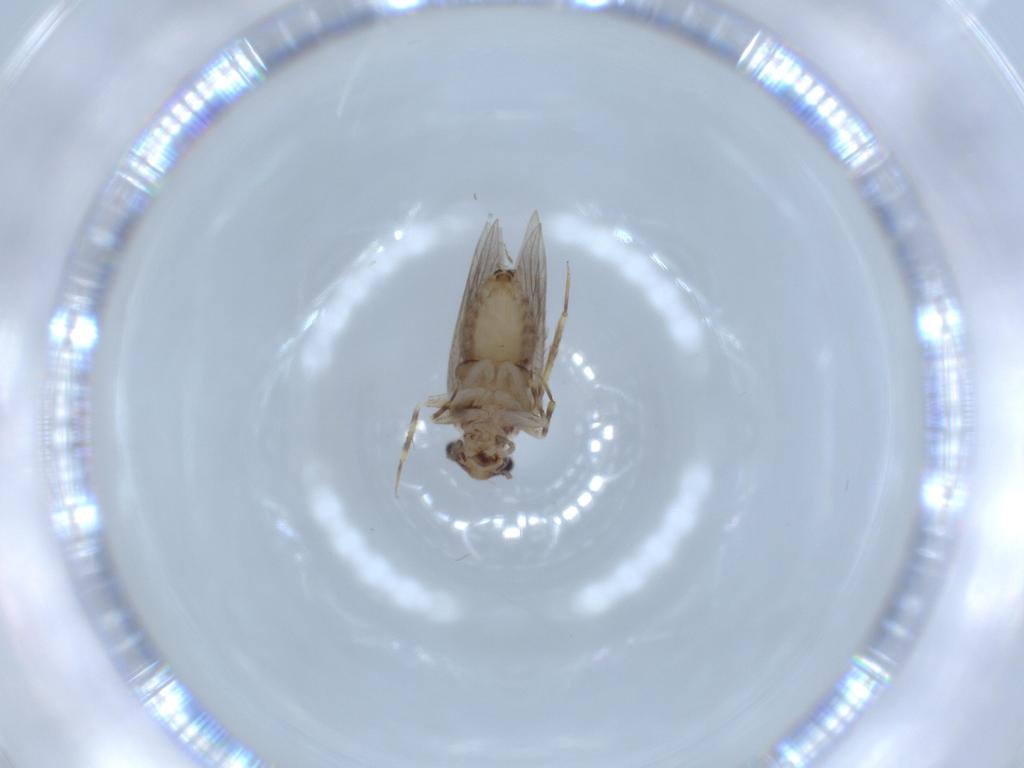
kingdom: Animalia
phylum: Arthropoda
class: Insecta
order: Psocodea
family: Lepidopsocidae
